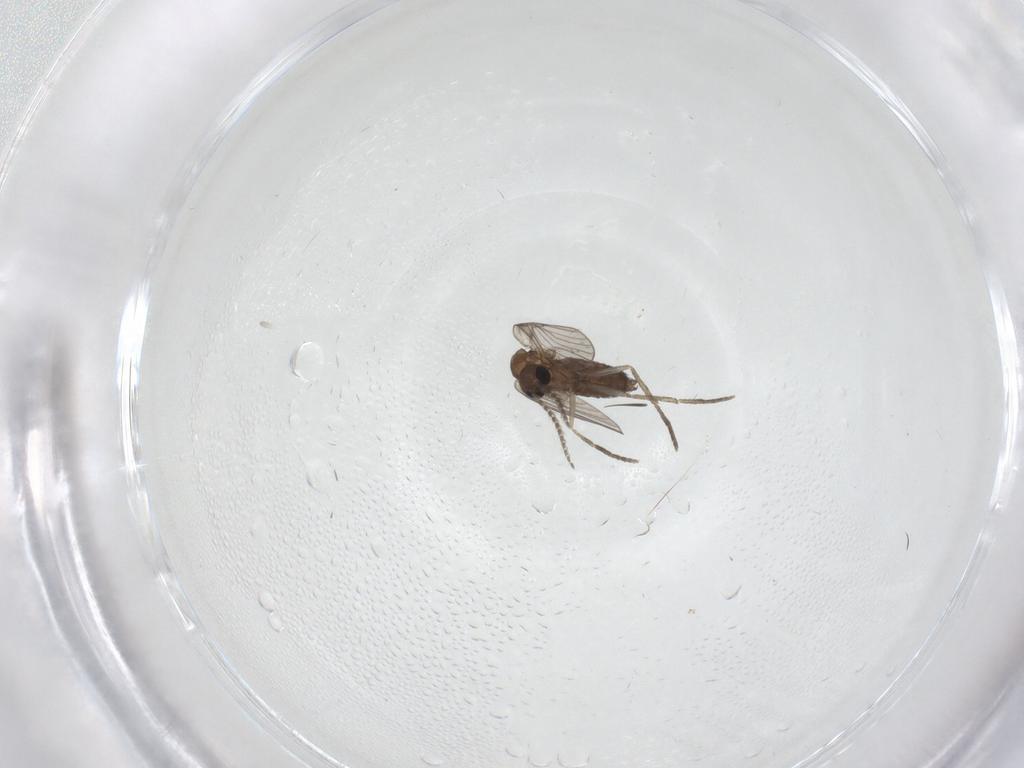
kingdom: Animalia
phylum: Arthropoda
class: Insecta
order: Diptera
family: Psychodidae
